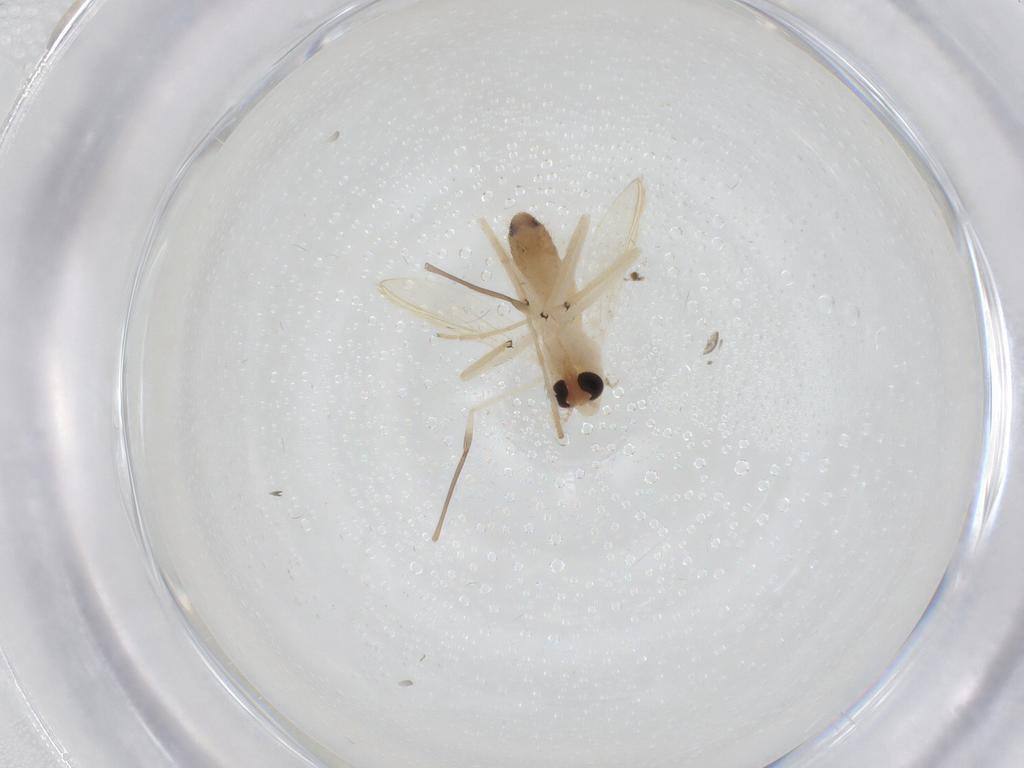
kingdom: Animalia
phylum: Arthropoda
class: Insecta
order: Diptera
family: Chironomidae
